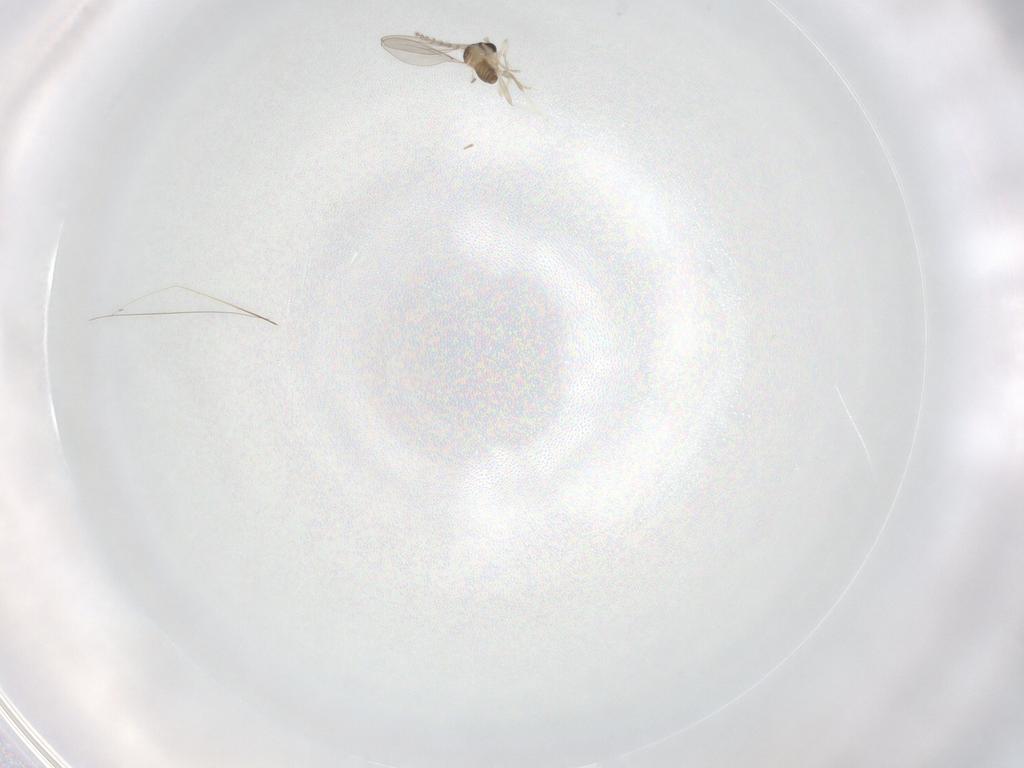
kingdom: Animalia
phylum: Arthropoda
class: Insecta
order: Diptera
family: Cecidomyiidae
